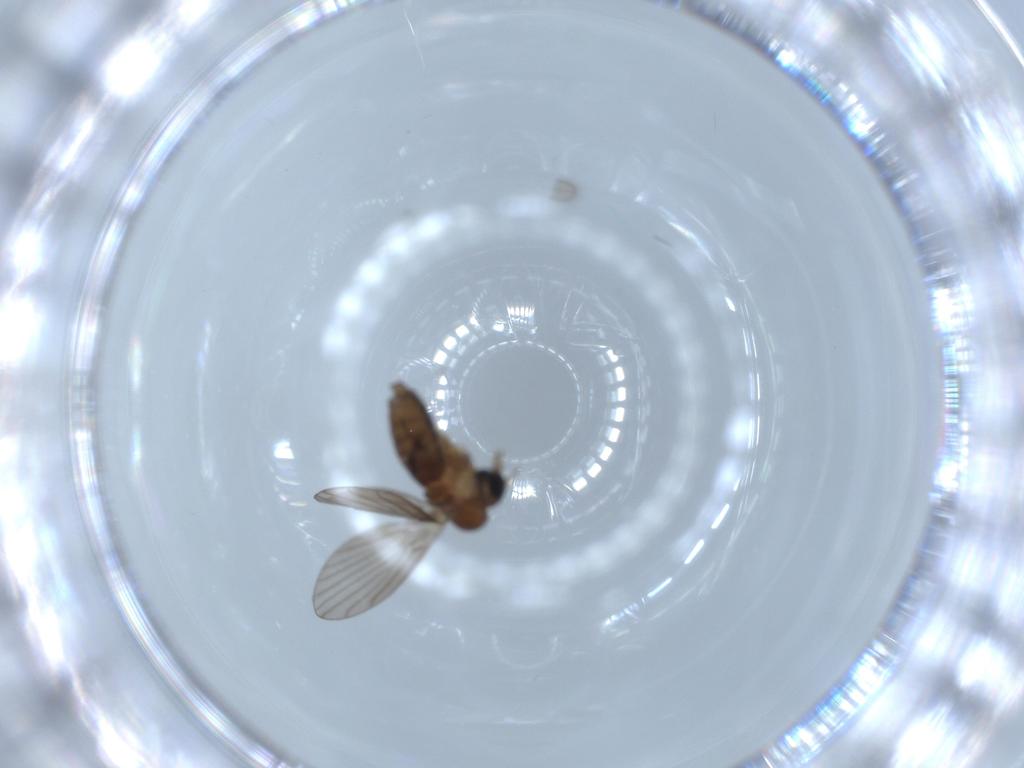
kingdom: Animalia
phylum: Arthropoda
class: Insecta
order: Diptera
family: Psychodidae
